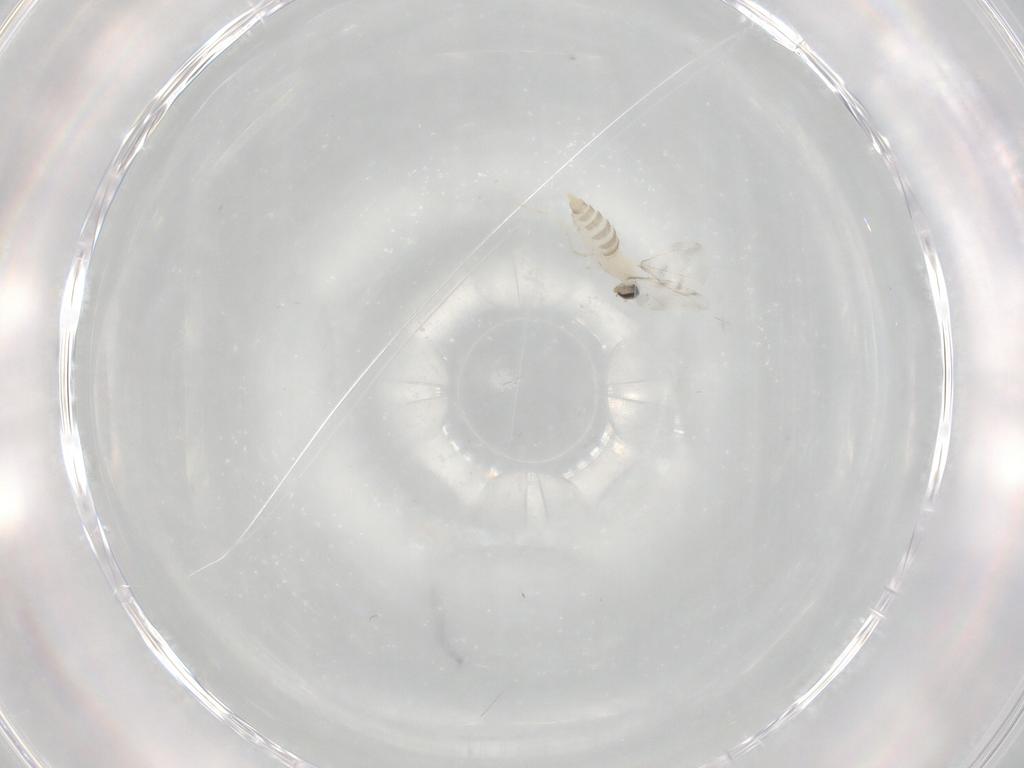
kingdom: Animalia
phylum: Arthropoda
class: Insecta
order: Diptera
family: Cecidomyiidae
